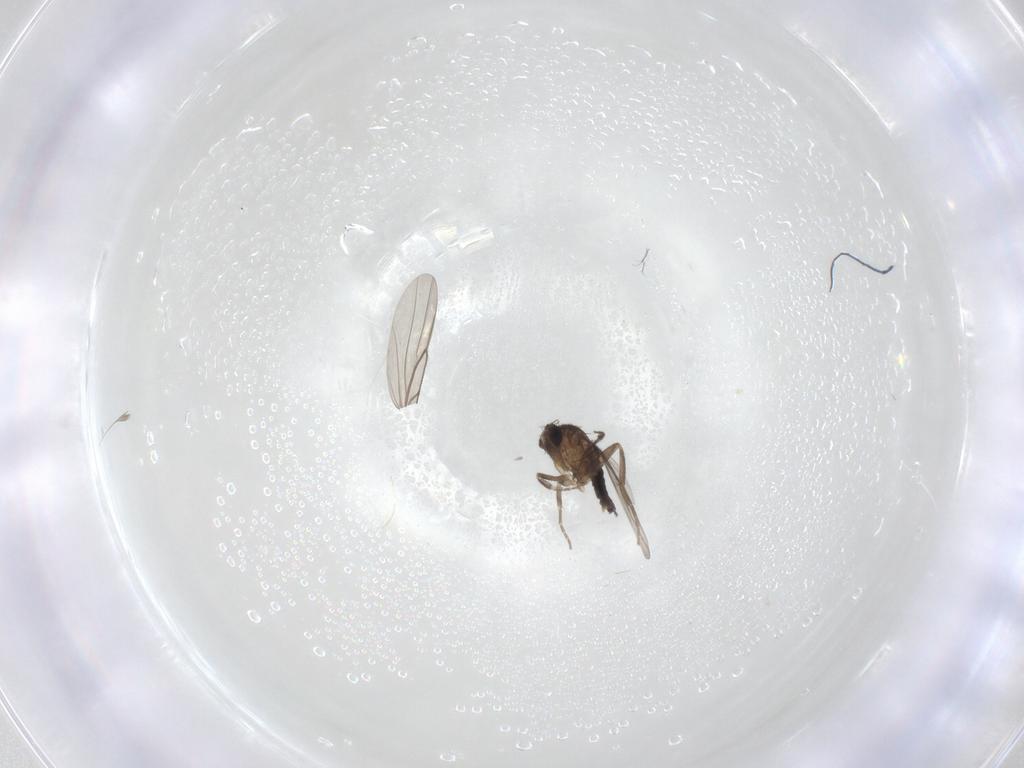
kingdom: Animalia
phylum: Arthropoda
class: Insecta
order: Diptera
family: Phoridae
